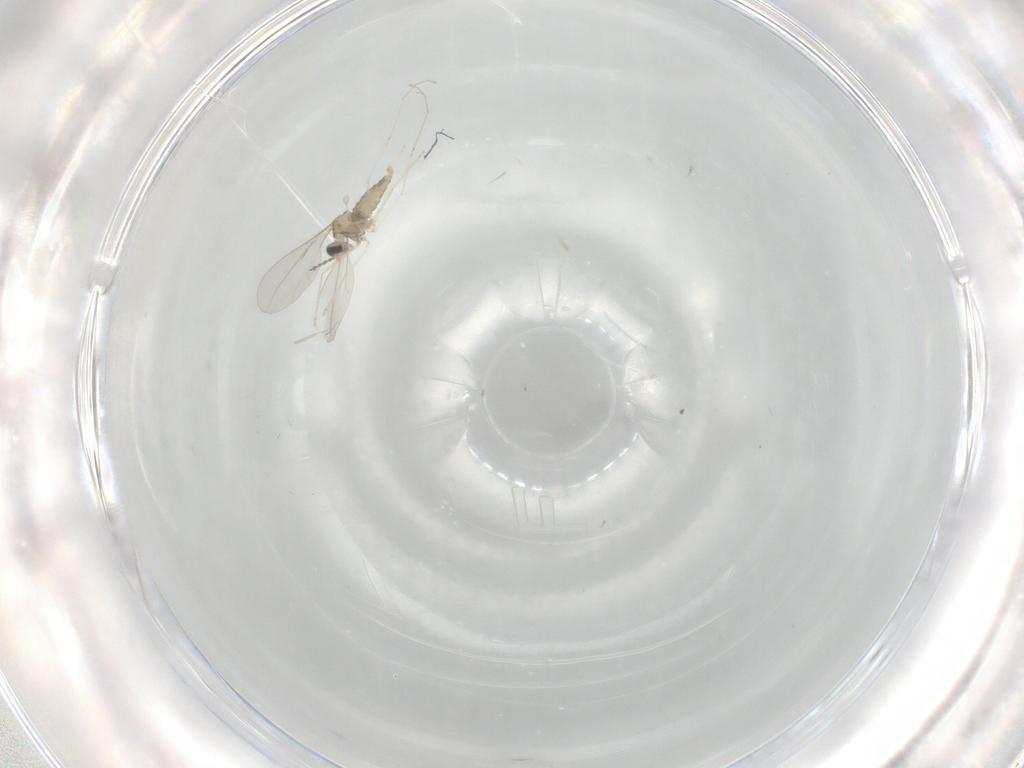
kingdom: Animalia
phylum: Arthropoda
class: Insecta
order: Diptera
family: Cecidomyiidae
